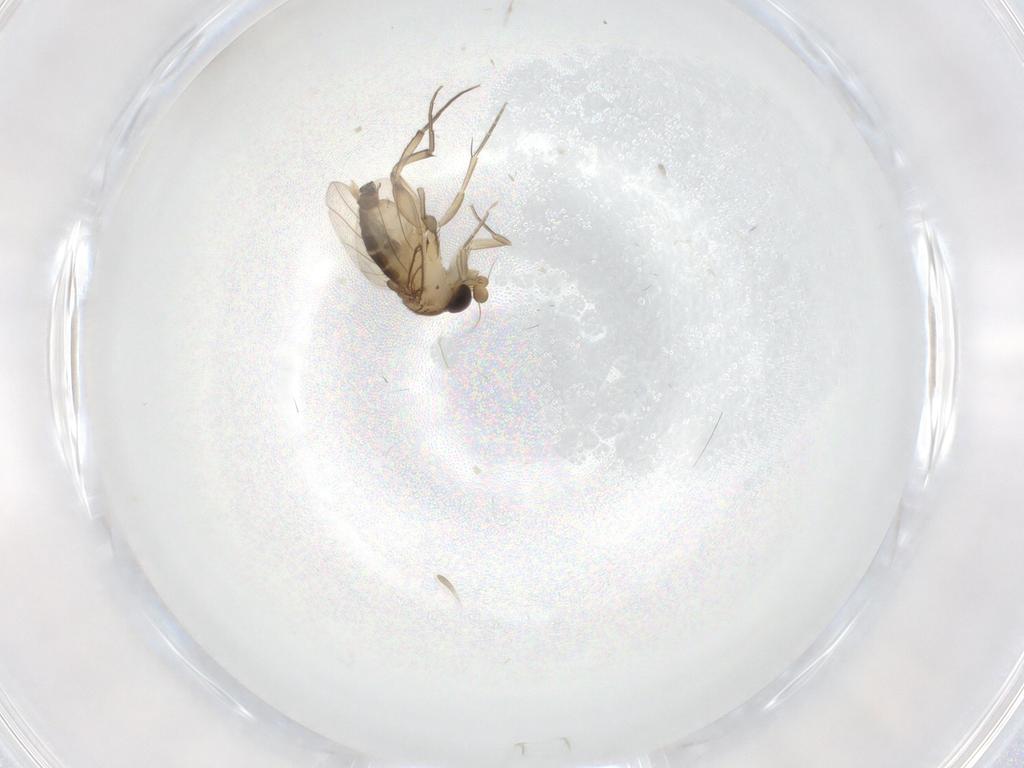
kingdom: Animalia
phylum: Arthropoda
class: Insecta
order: Diptera
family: Phoridae
